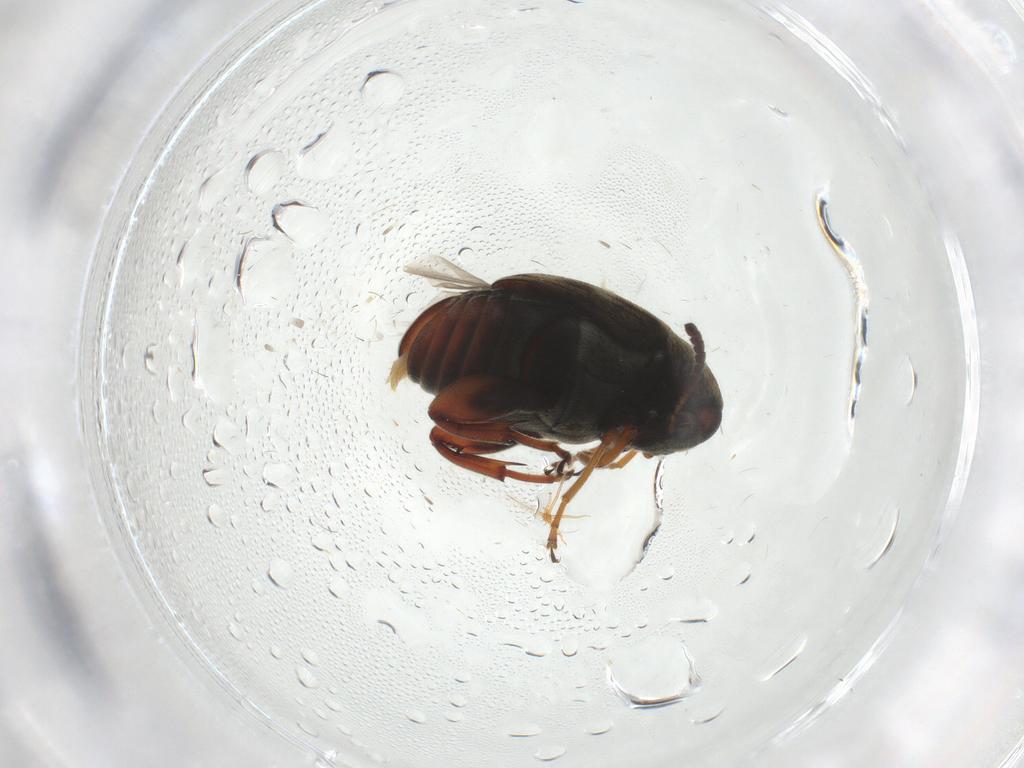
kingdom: Animalia
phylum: Arthropoda
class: Insecta
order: Coleoptera
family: Chrysomelidae
